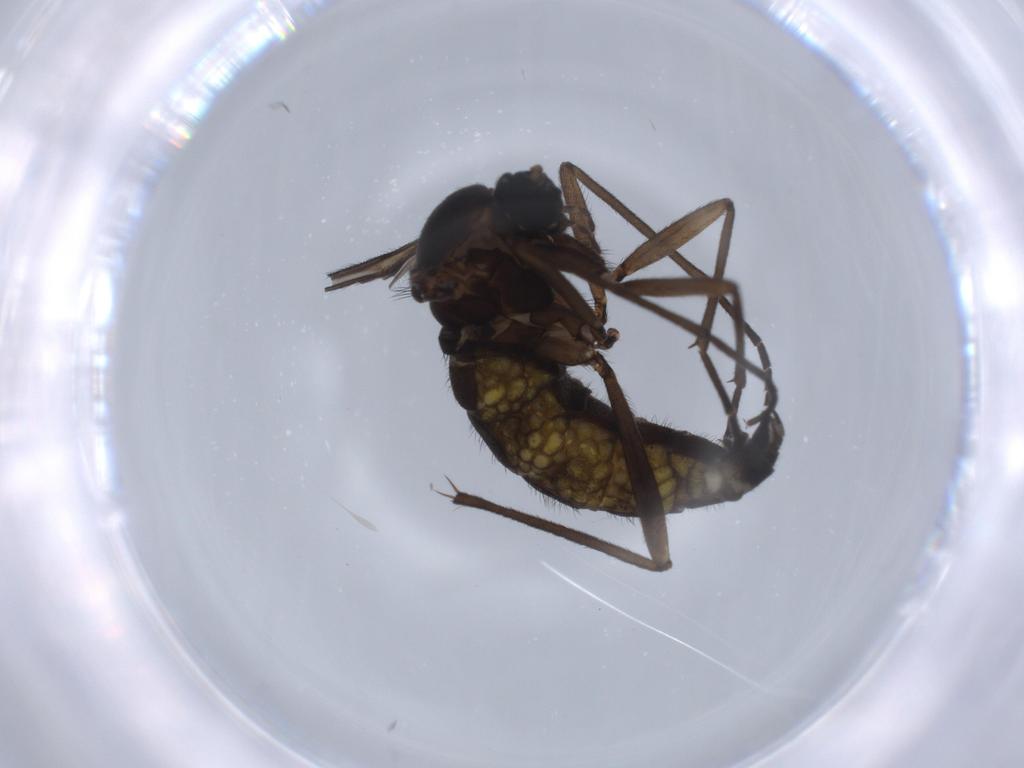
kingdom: Animalia
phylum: Arthropoda
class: Insecta
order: Diptera
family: Sciaridae
